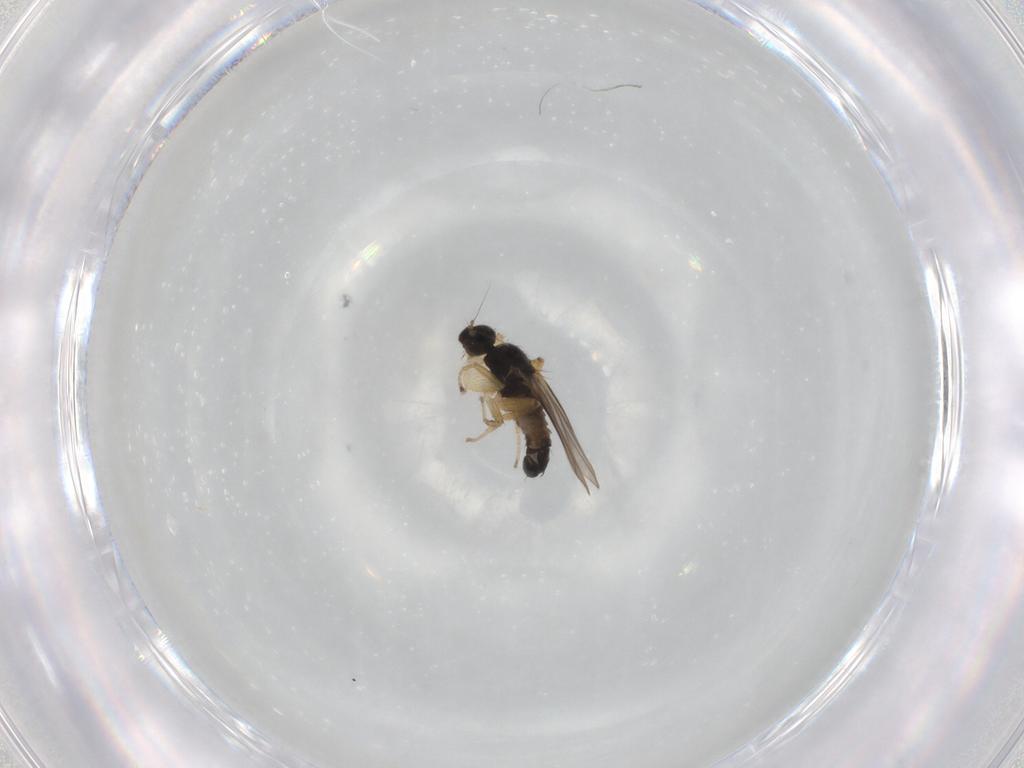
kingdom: Animalia
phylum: Arthropoda
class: Insecta
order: Diptera
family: Hybotidae
